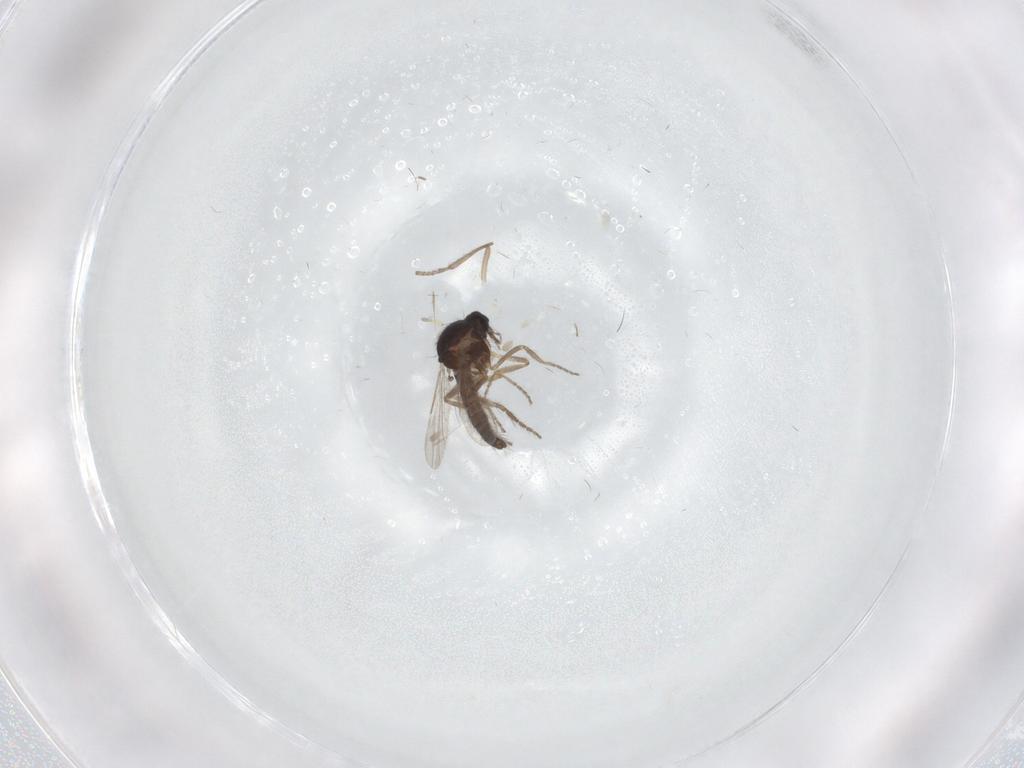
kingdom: Animalia
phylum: Arthropoda
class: Insecta
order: Diptera
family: Ceratopogonidae
